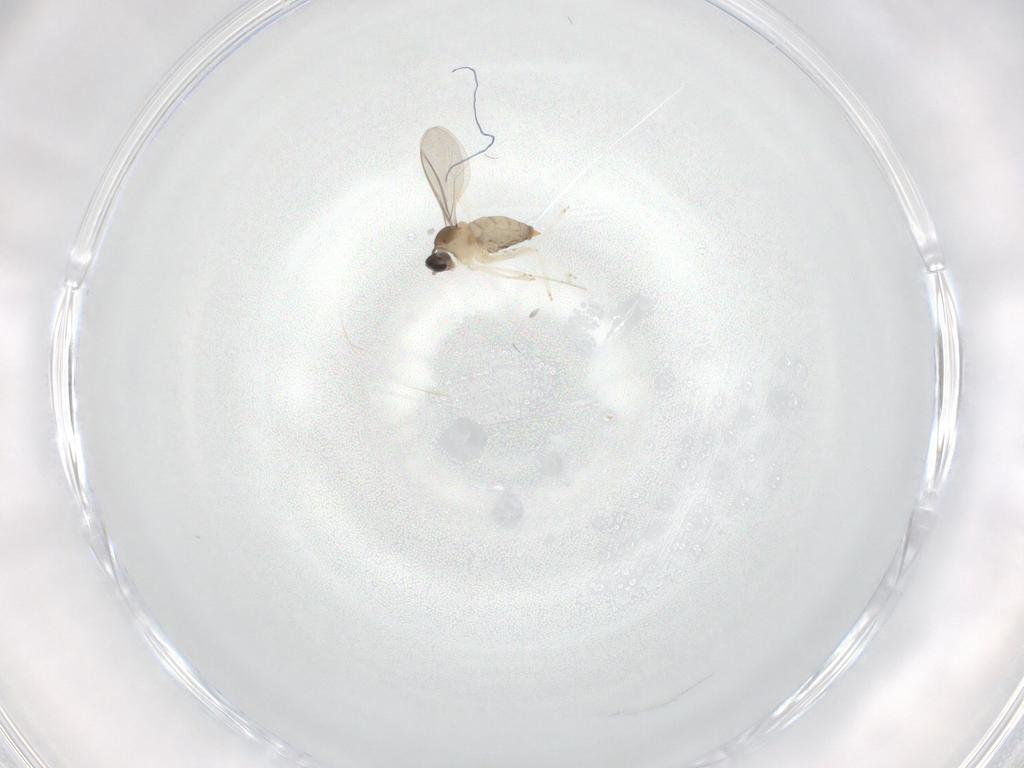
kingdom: Animalia
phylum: Arthropoda
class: Insecta
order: Diptera
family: Cecidomyiidae
